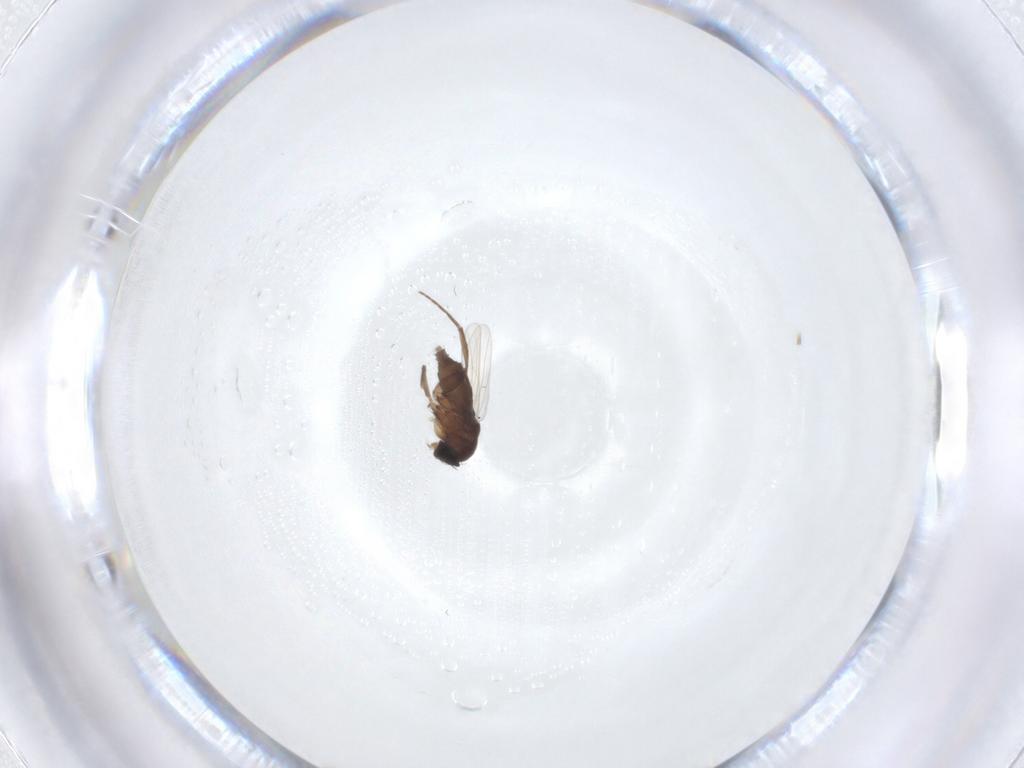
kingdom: Animalia
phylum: Arthropoda
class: Insecta
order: Diptera
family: Phoridae
